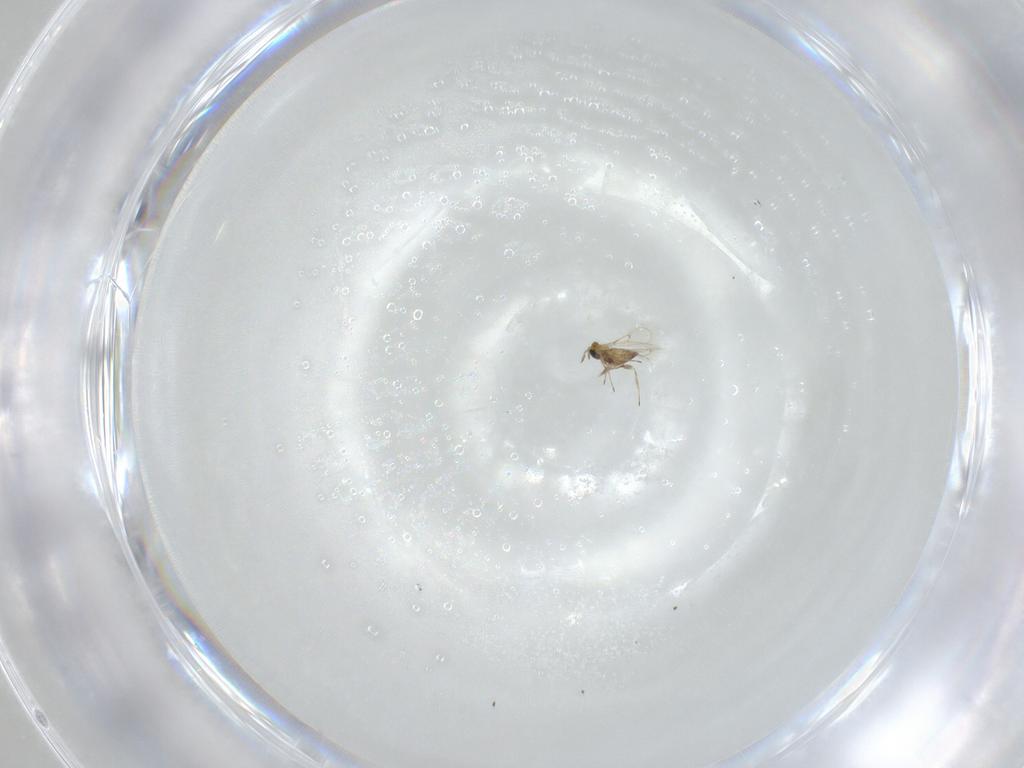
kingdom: Animalia
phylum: Arthropoda
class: Insecta
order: Hymenoptera
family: Trichogrammatidae
